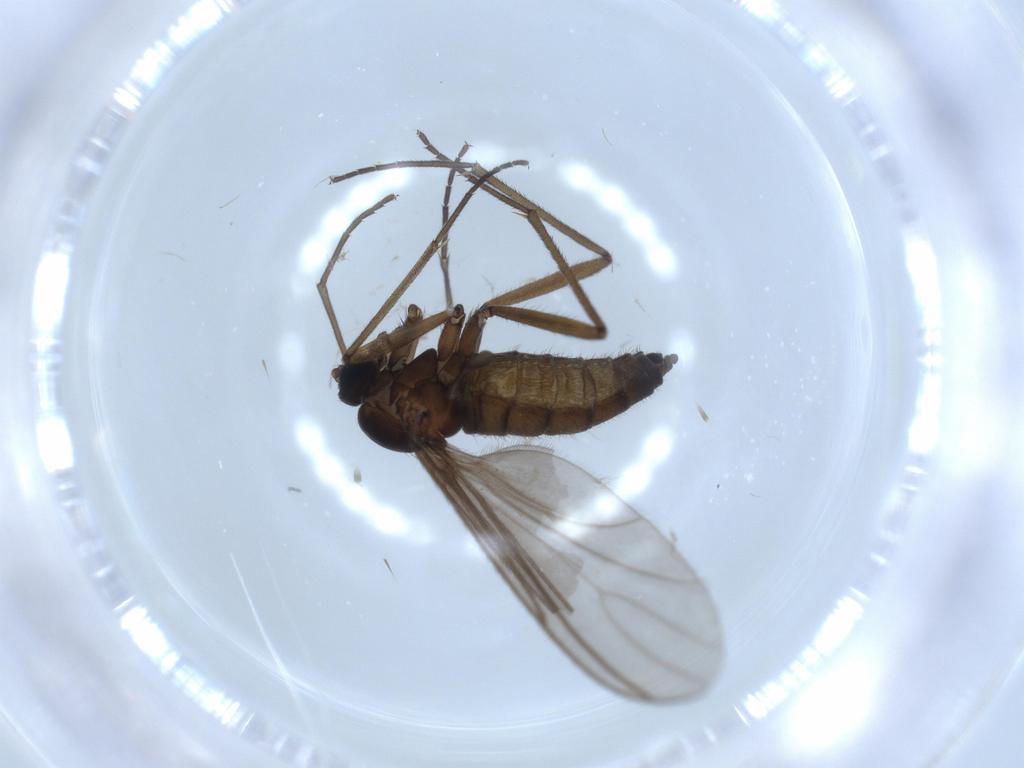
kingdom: Animalia
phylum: Arthropoda
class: Insecta
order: Diptera
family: Sciaridae
